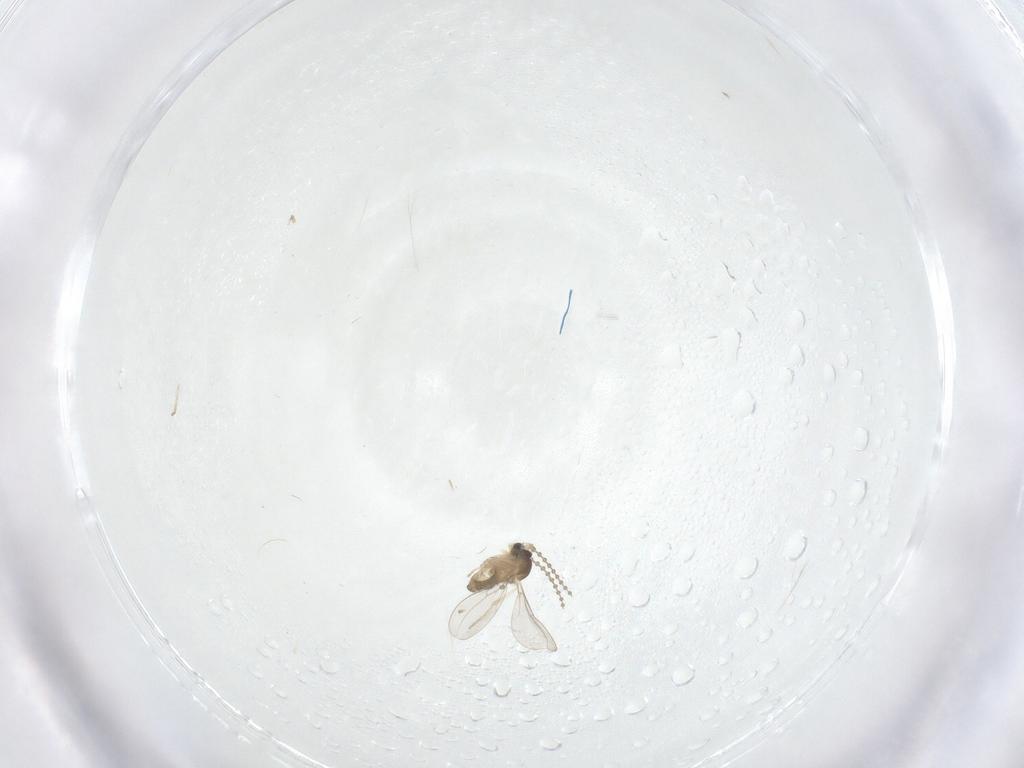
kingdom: Animalia
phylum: Arthropoda
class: Insecta
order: Diptera
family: Cecidomyiidae
